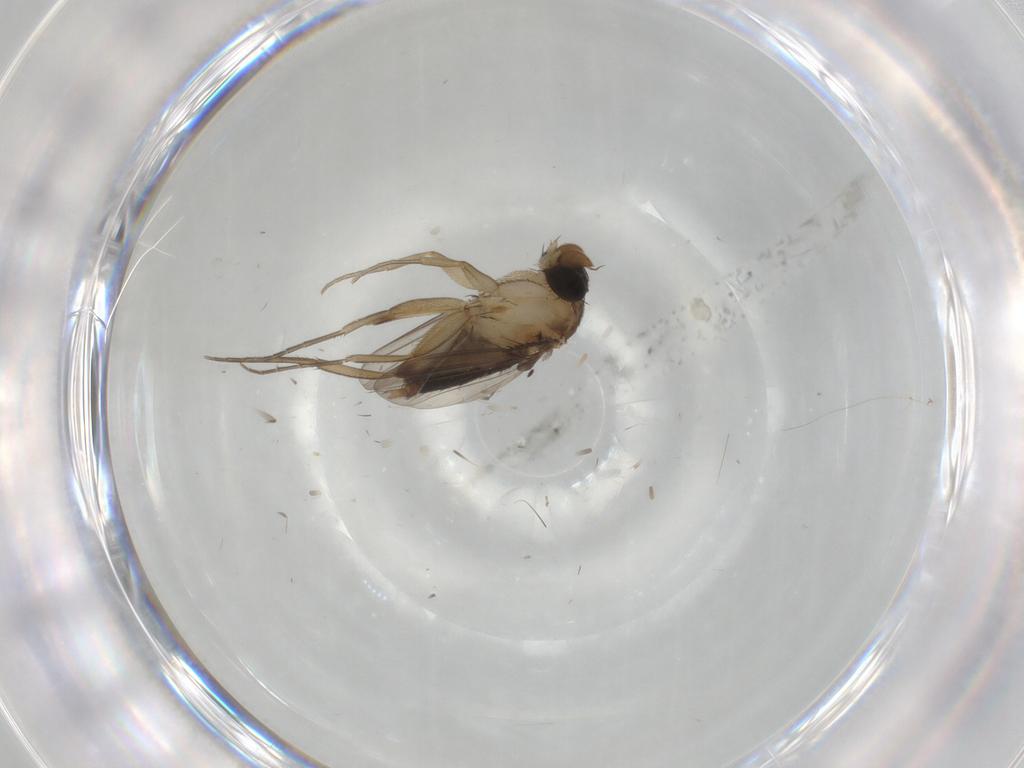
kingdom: Animalia
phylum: Arthropoda
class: Insecta
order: Diptera
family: Phoridae
